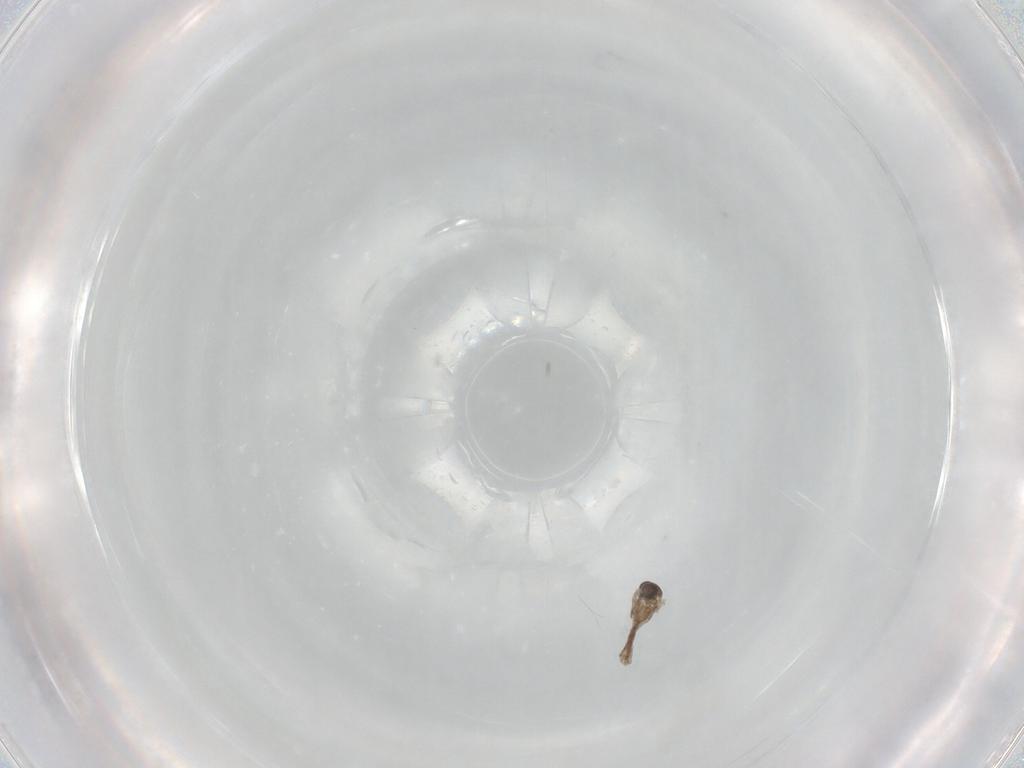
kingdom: Animalia
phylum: Arthropoda
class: Insecta
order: Diptera
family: Cecidomyiidae
